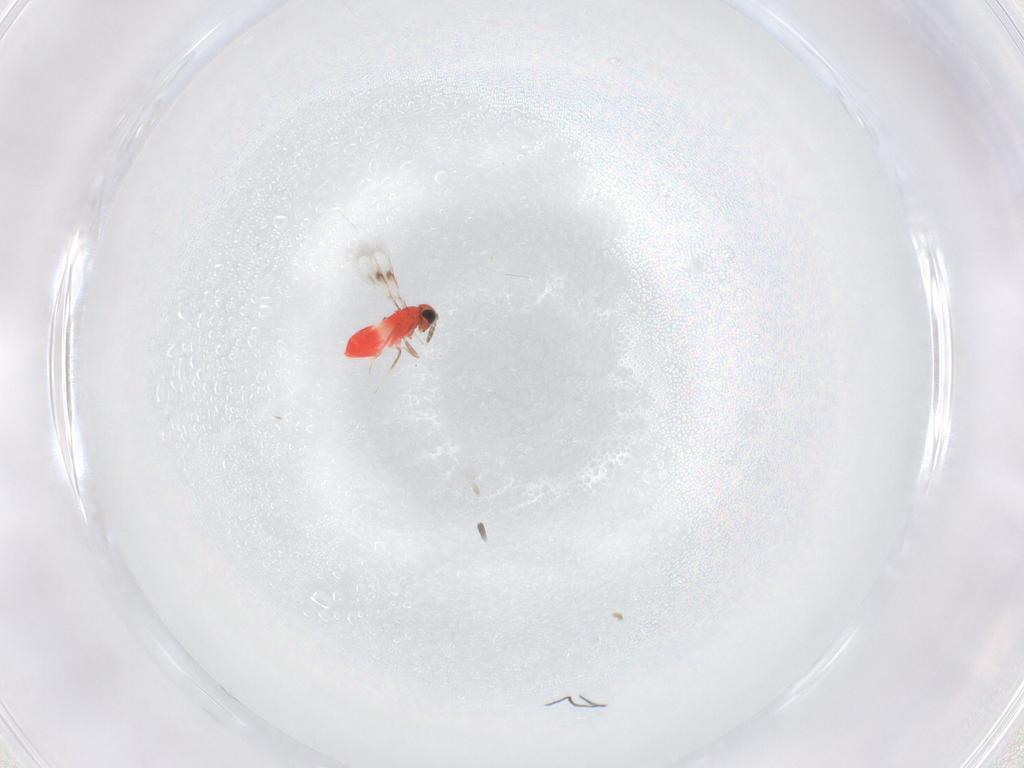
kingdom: Animalia
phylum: Arthropoda
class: Insecta
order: Hymenoptera
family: Trichogrammatidae
